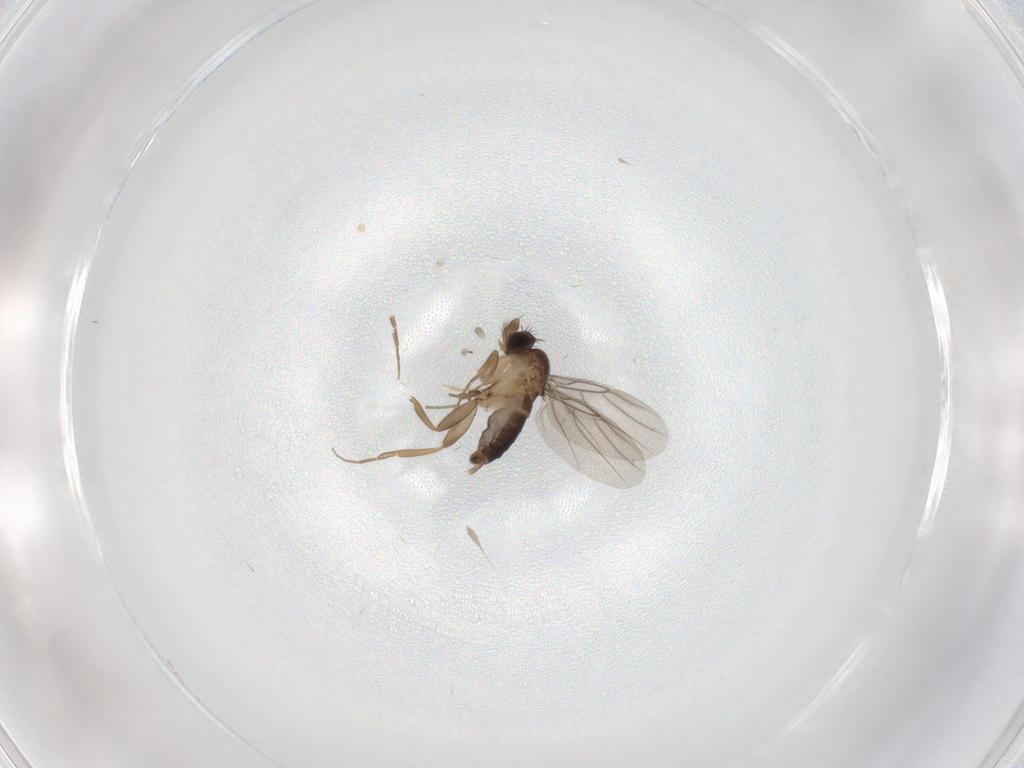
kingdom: Animalia
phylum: Arthropoda
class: Insecta
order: Diptera
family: Phoridae
